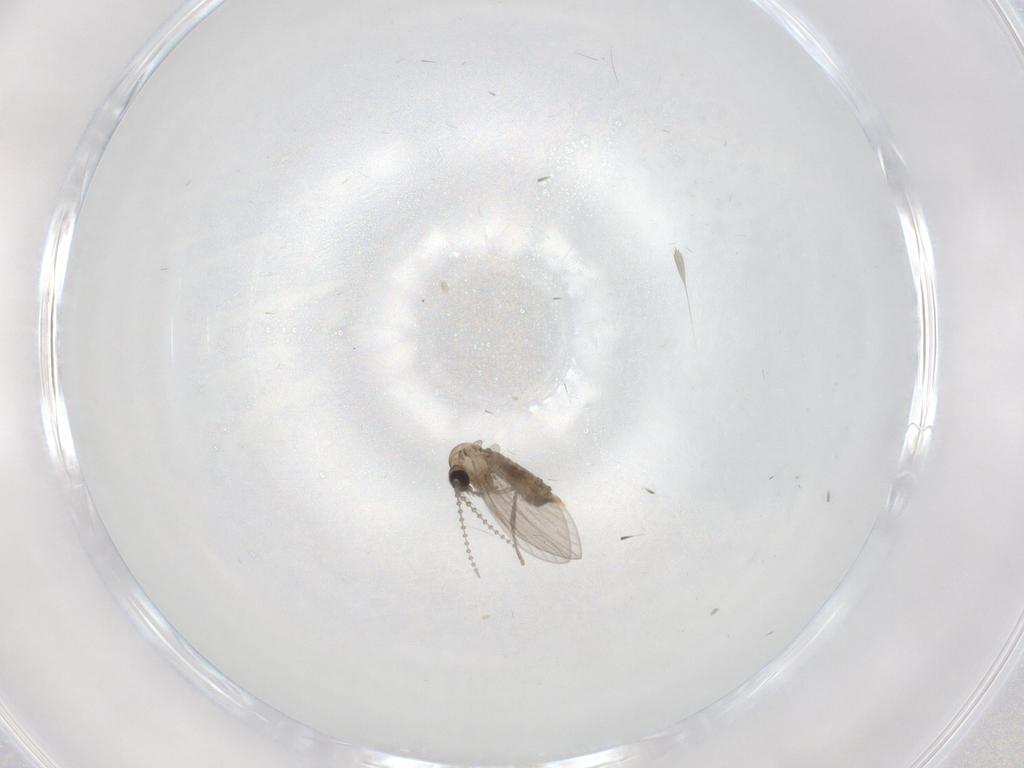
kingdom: Animalia
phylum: Arthropoda
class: Insecta
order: Diptera
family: Psychodidae
